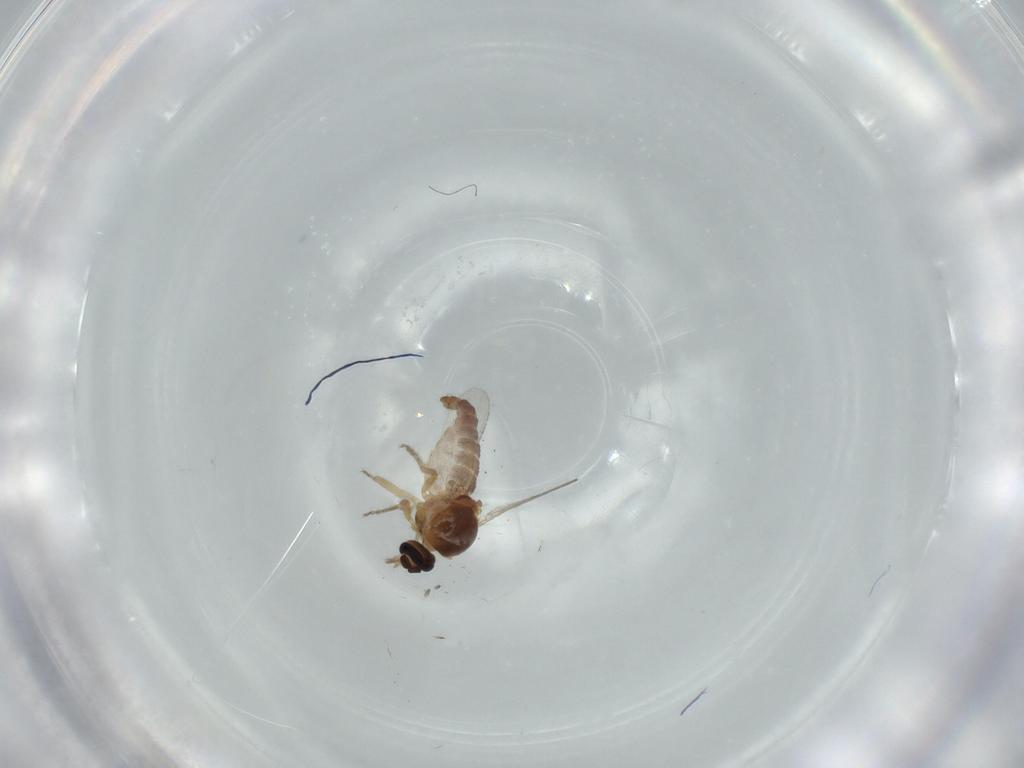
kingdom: Animalia
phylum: Arthropoda
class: Insecta
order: Diptera
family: Ceratopogonidae
